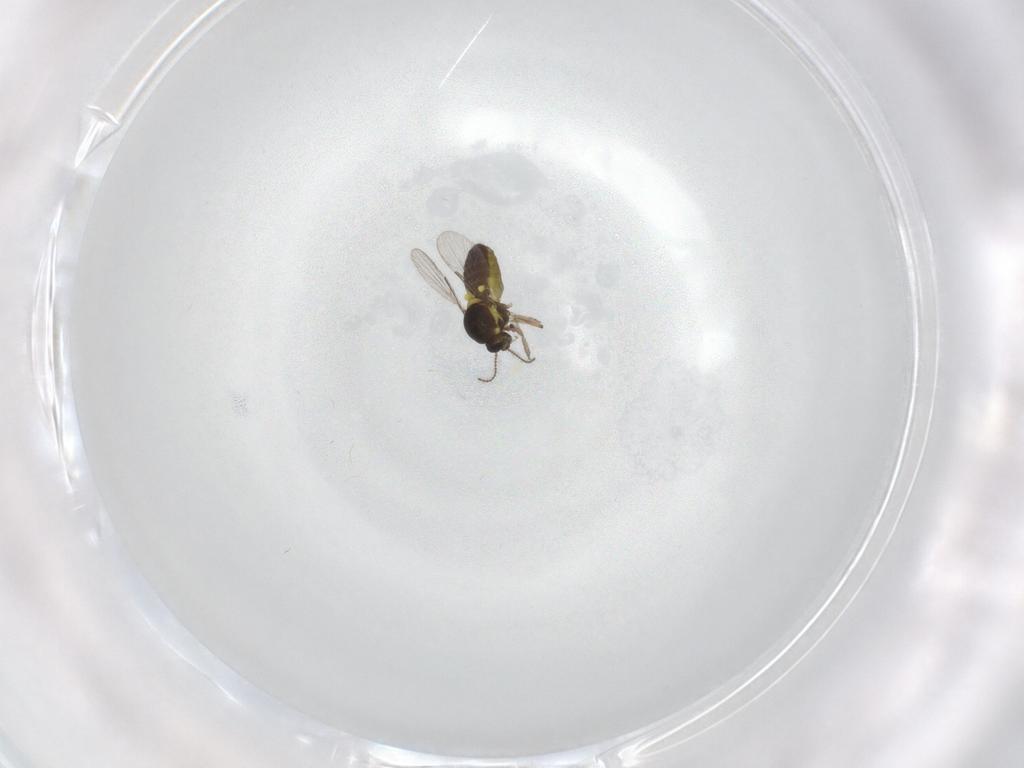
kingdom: Animalia
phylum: Arthropoda
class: Insecta
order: Diptera
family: Ceratopogonidae
